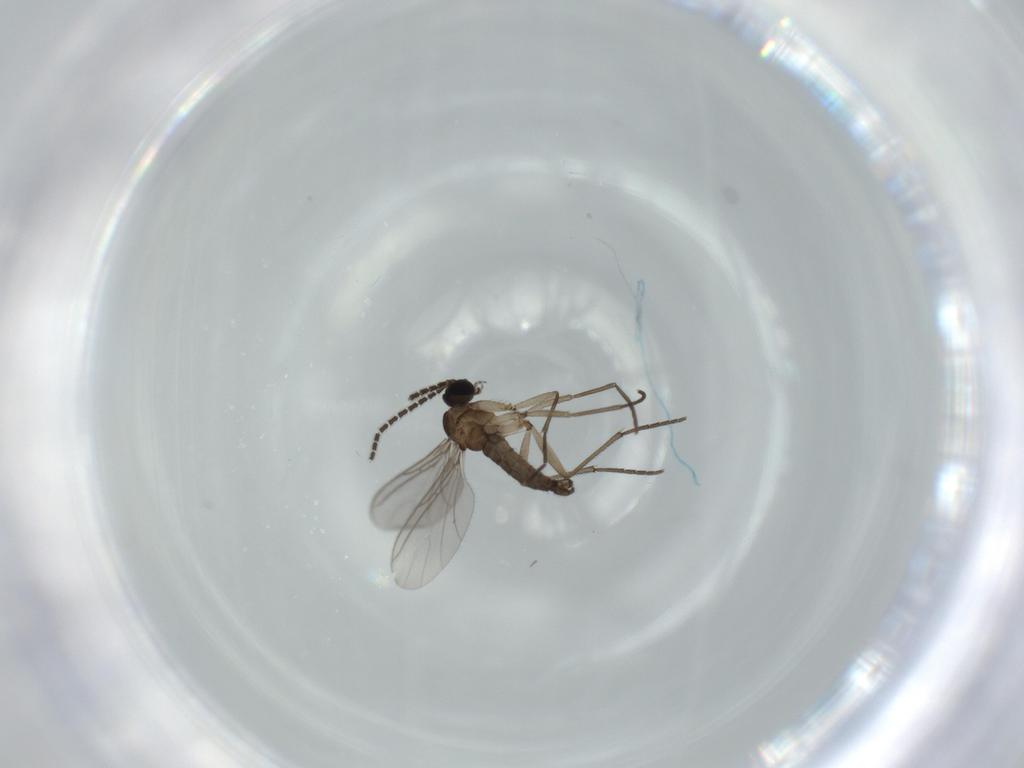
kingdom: Animalia
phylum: Arthropoda
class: Insecta
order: Diptera
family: Sciaridae
